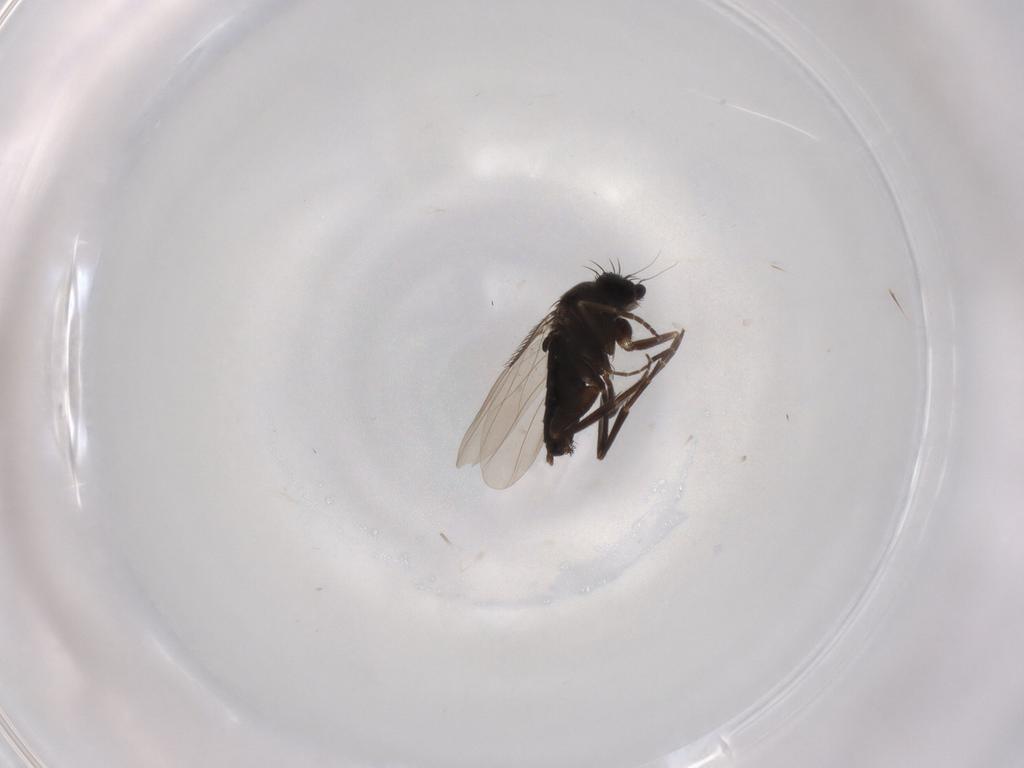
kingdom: Animalia
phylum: Arthropoda
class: Insecta
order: Diptera
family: Phoridae
